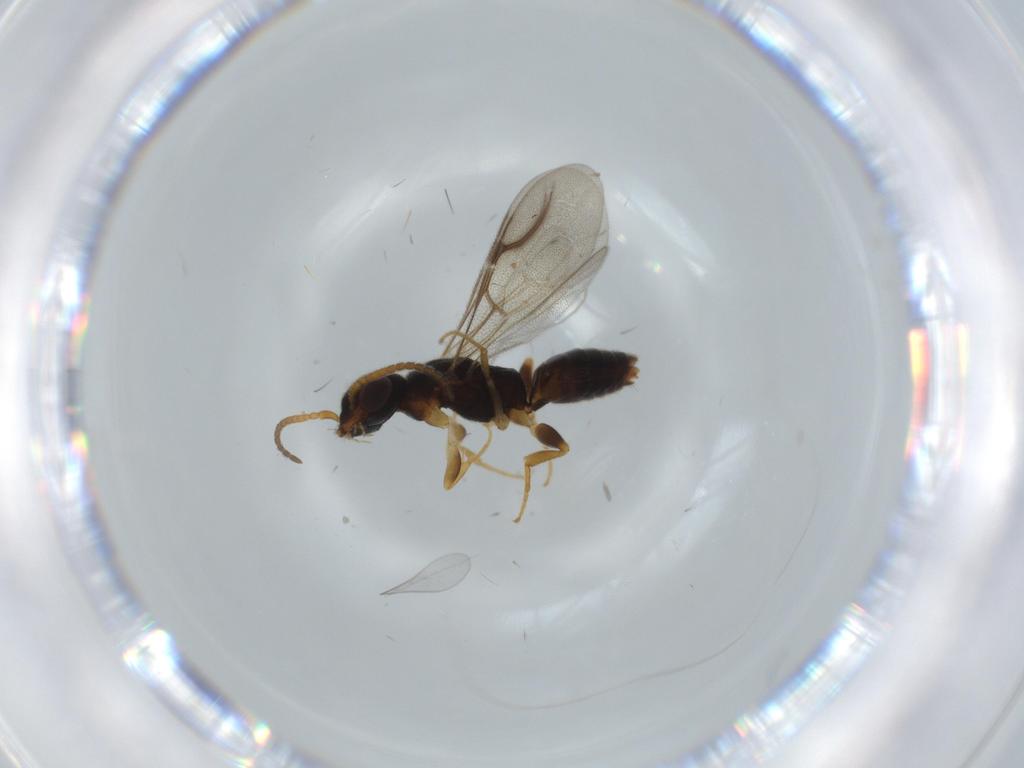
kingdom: Animalia
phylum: Arthropoda
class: Insecta
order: Hymenoptera
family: Bethylidae
